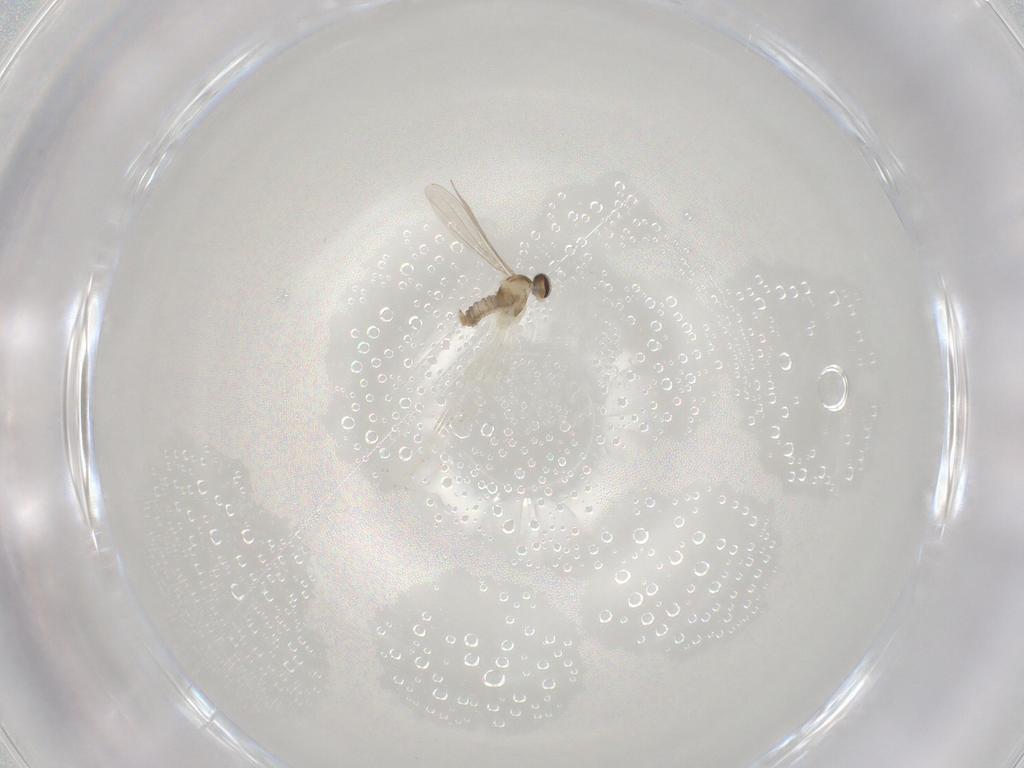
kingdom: Animalia
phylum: Arthropoda
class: Insecta
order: Diptera
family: Cecidomyiidae
